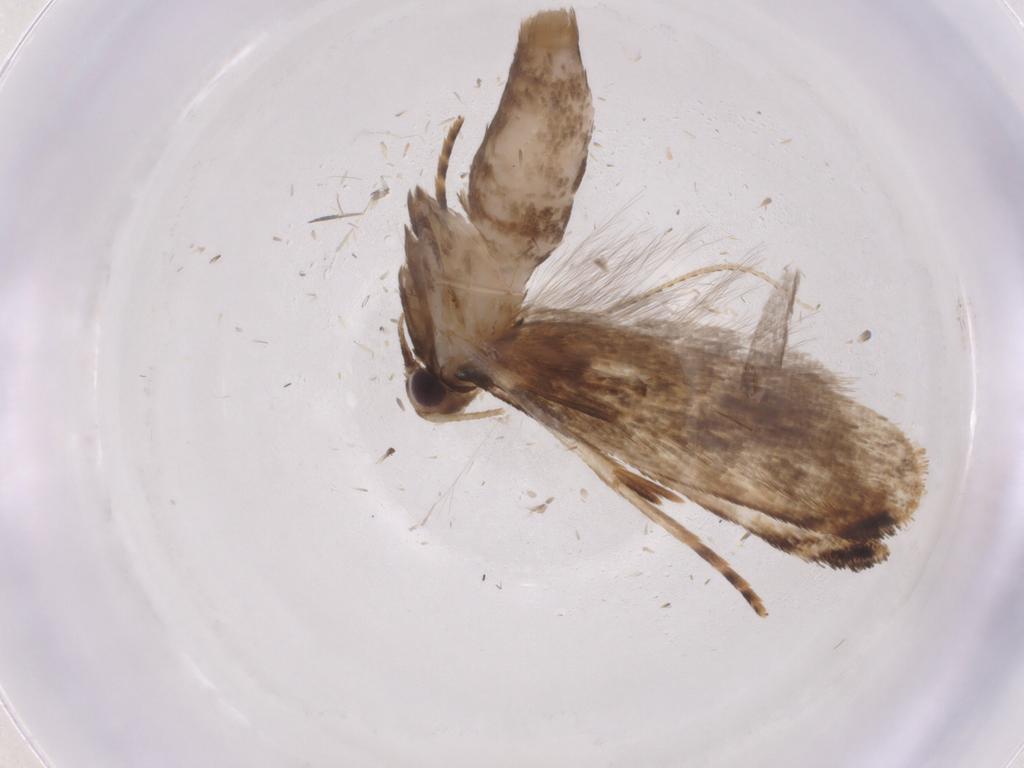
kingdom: Animalia
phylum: Arthropoda
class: Insecta
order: Lepidoptera
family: Gelechiidae
